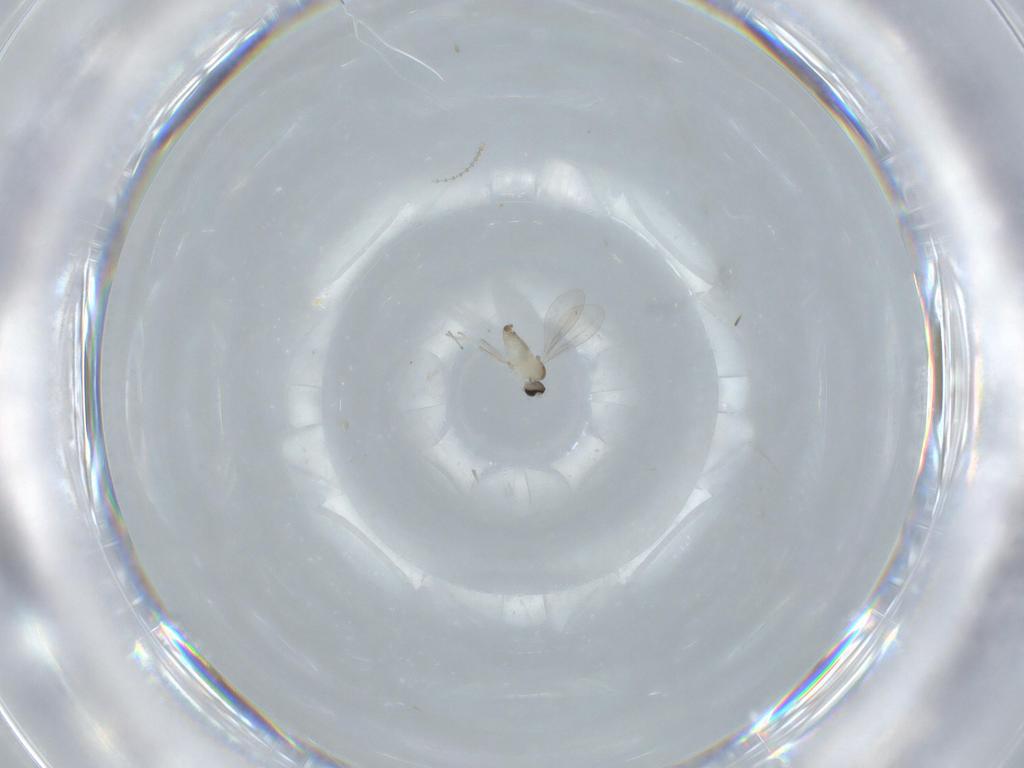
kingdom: Animalia
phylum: Arthropoda
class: Insecta
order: Diptera
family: Cecidomyiidae
